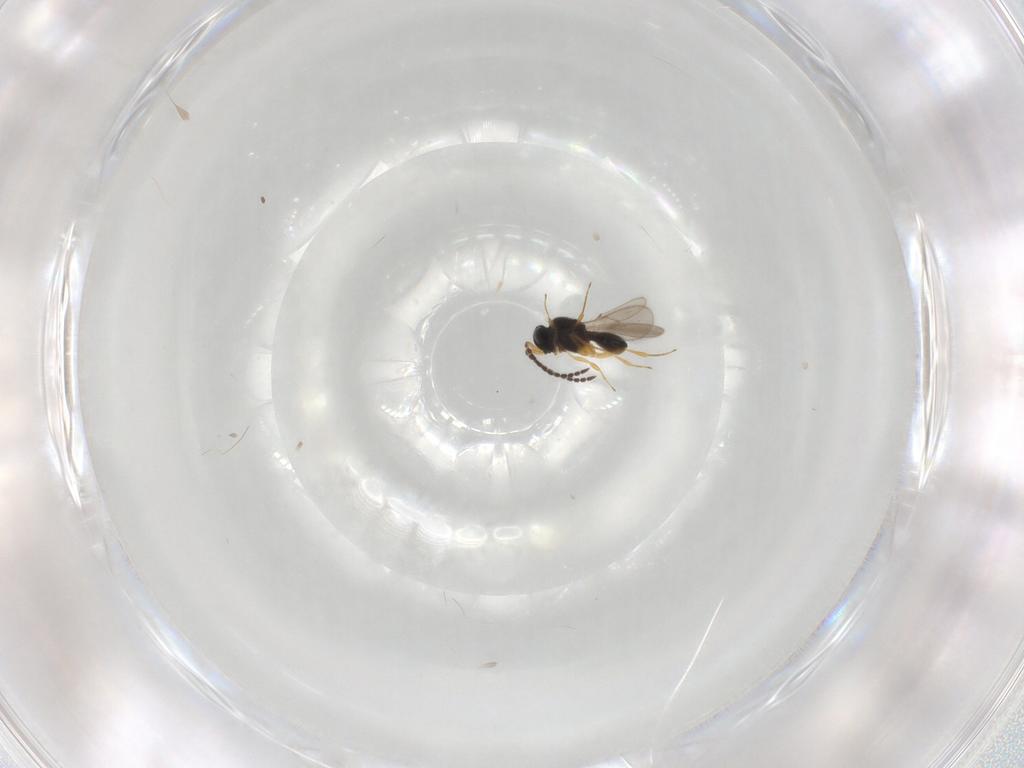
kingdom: Animalia
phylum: Arthropoda
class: Insecta
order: Hymenoptera
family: Scelionidae
